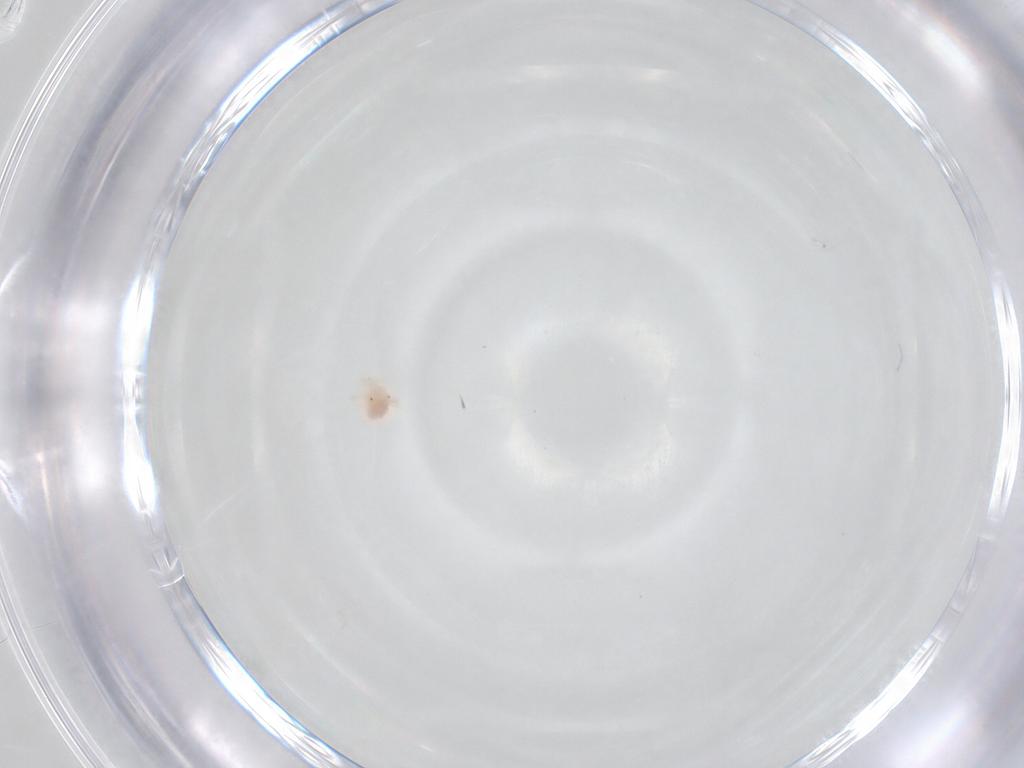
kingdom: Animalia
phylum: Arthropoda
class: Arachnida
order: Trombidiformes
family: Anystidae
